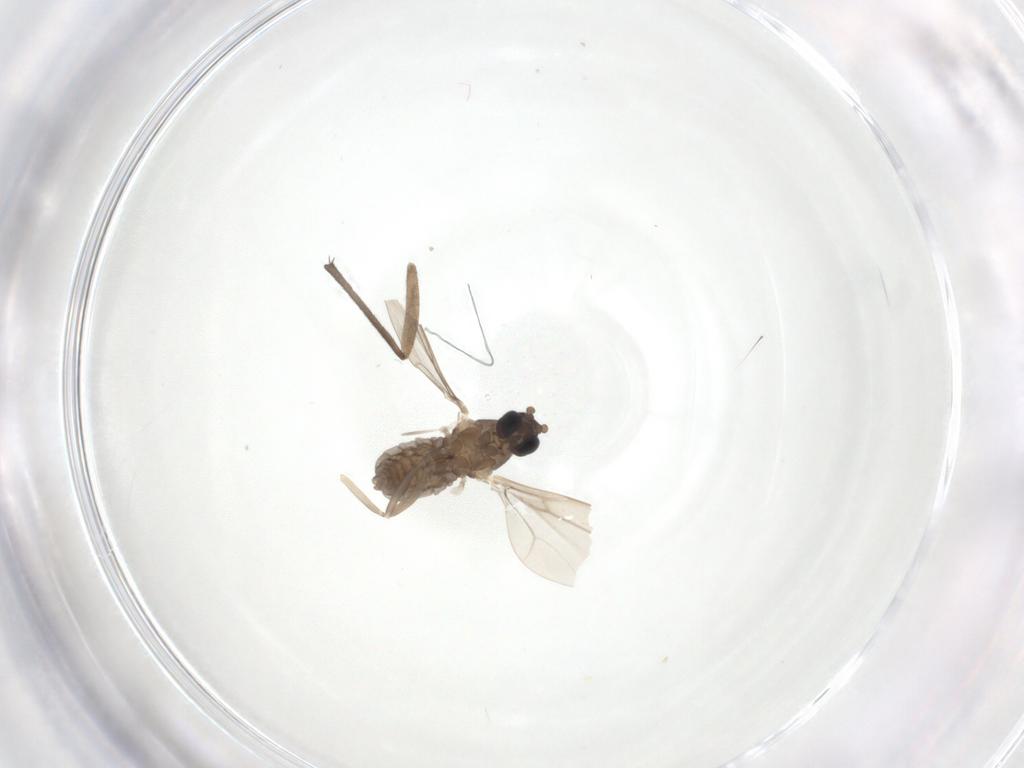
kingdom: Animalia
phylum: Arthropoda
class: Insecta
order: Diptera
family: Cecidomyiidae
